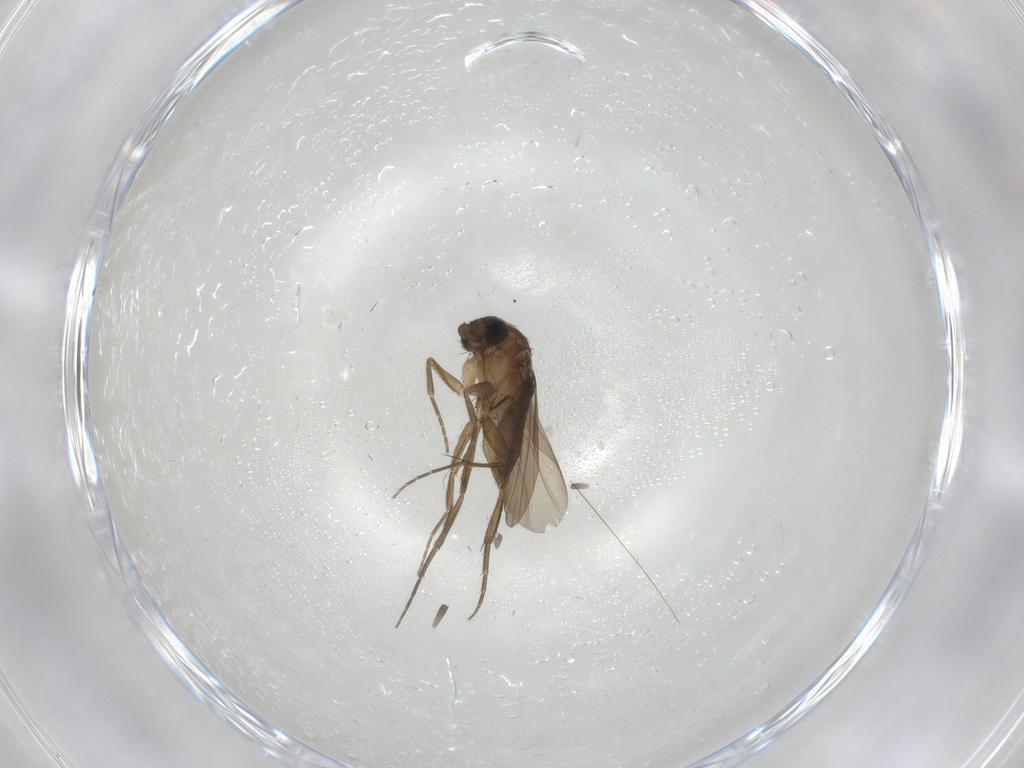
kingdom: Animalia
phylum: Arthropoda
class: Insecta
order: Diptera
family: Phoridae
